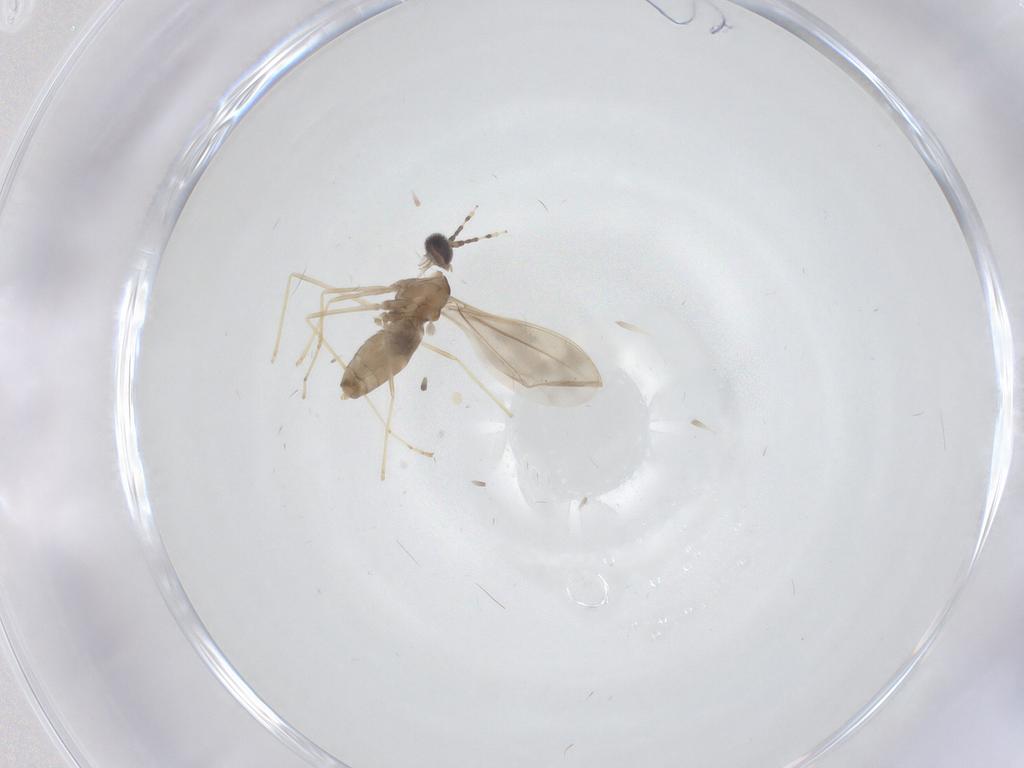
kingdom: Animalia
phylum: Arthropoda
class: Insecta
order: Diptera
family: Cecidomyiidae
